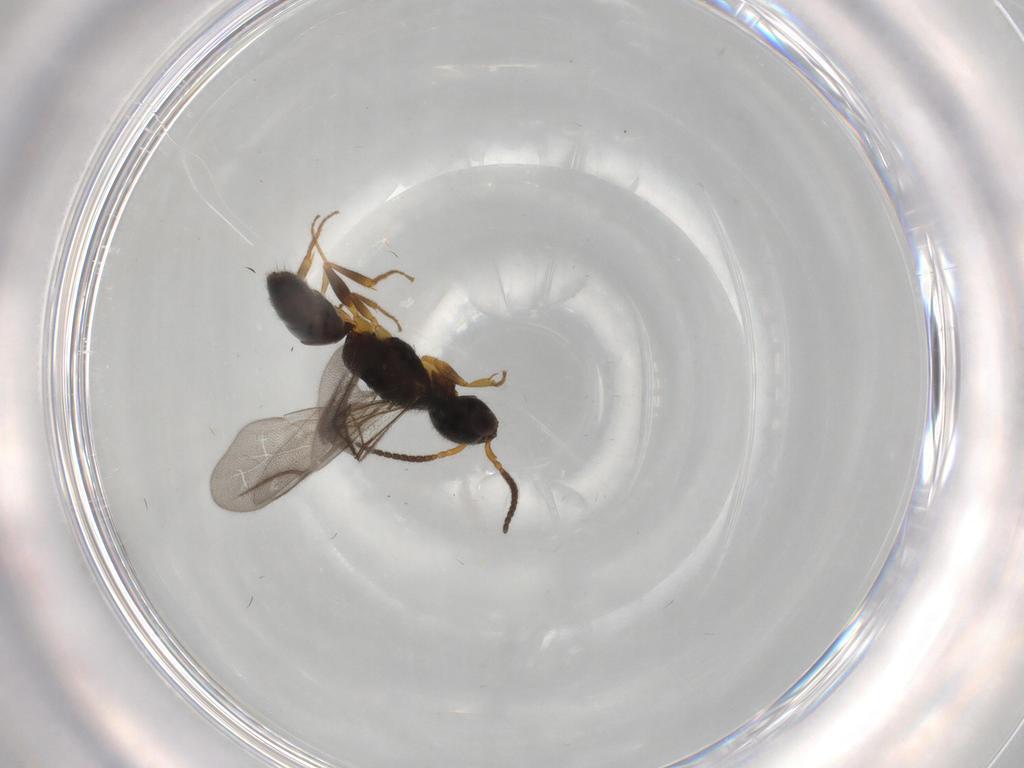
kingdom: Animalia
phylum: Arthropoda
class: Insecta
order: Hymenoptera
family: Bethylidae
